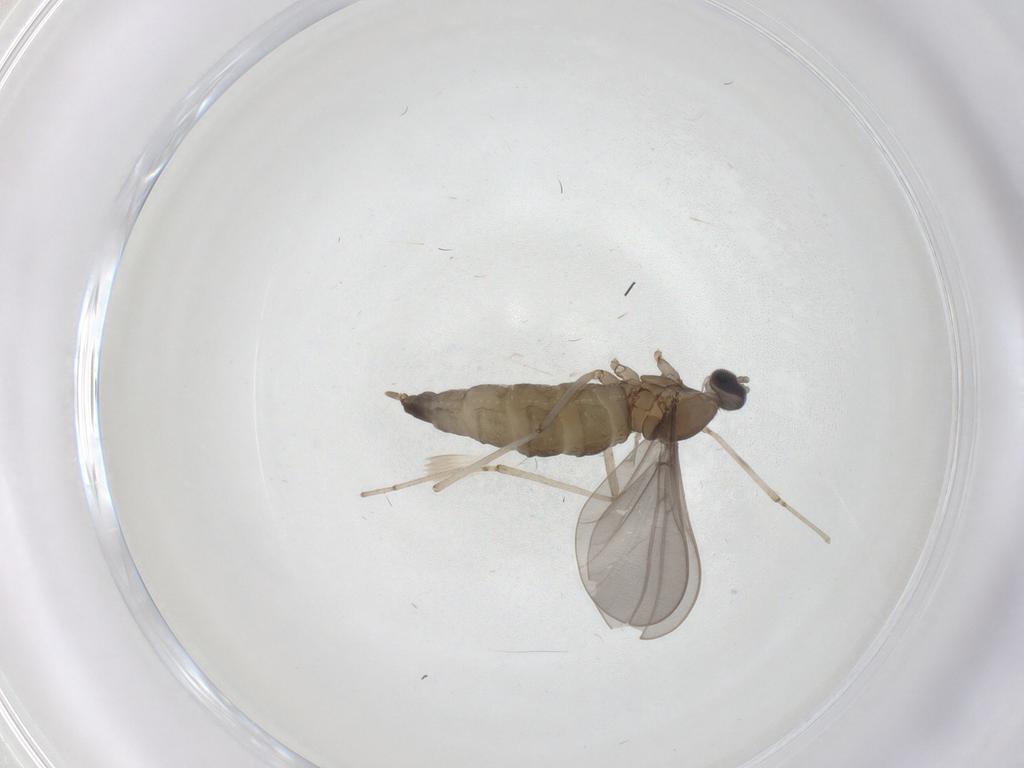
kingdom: Animalia
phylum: Arthropoda
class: Insecta
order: Diptera
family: Cecidomyiidae
